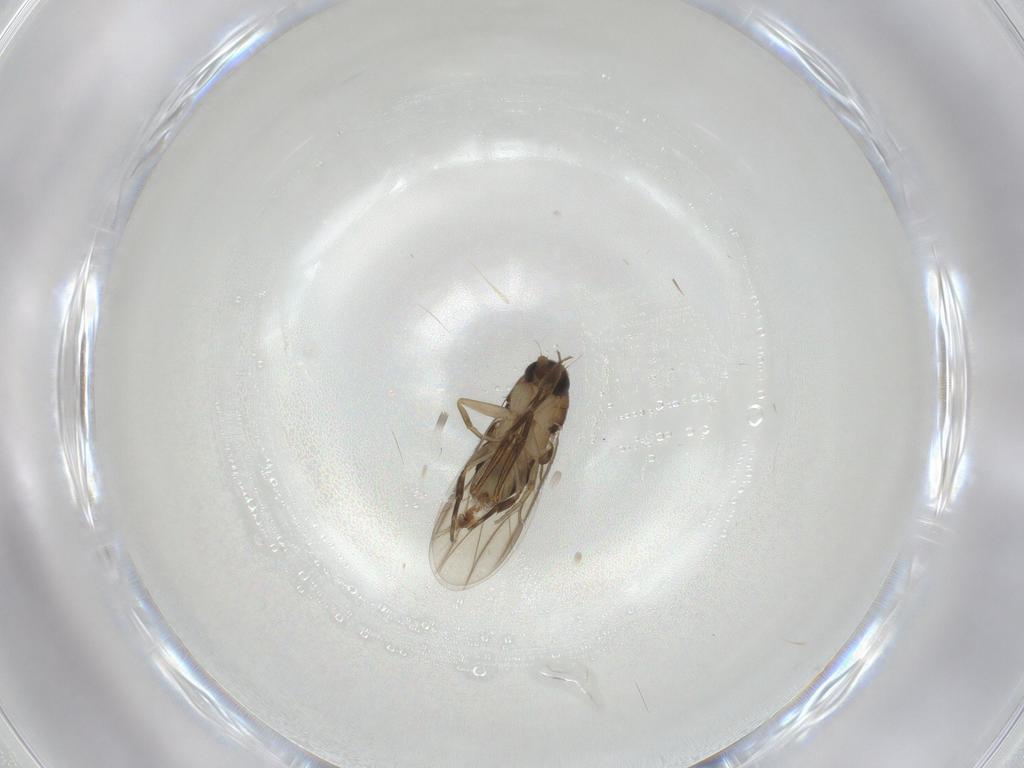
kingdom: Animalia
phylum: Arthropoda
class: Insecta
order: Diptera
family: Phoridae
